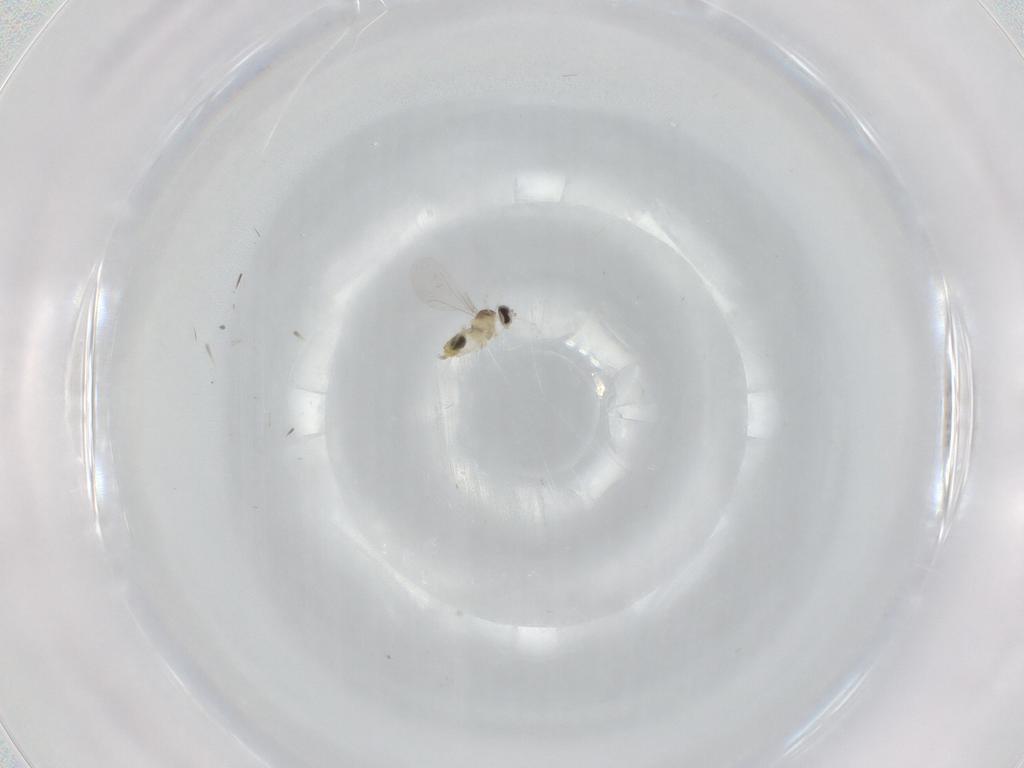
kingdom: Animalia
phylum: Arthropoda
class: Insecta
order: Diptera
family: Cecidomyiidae
